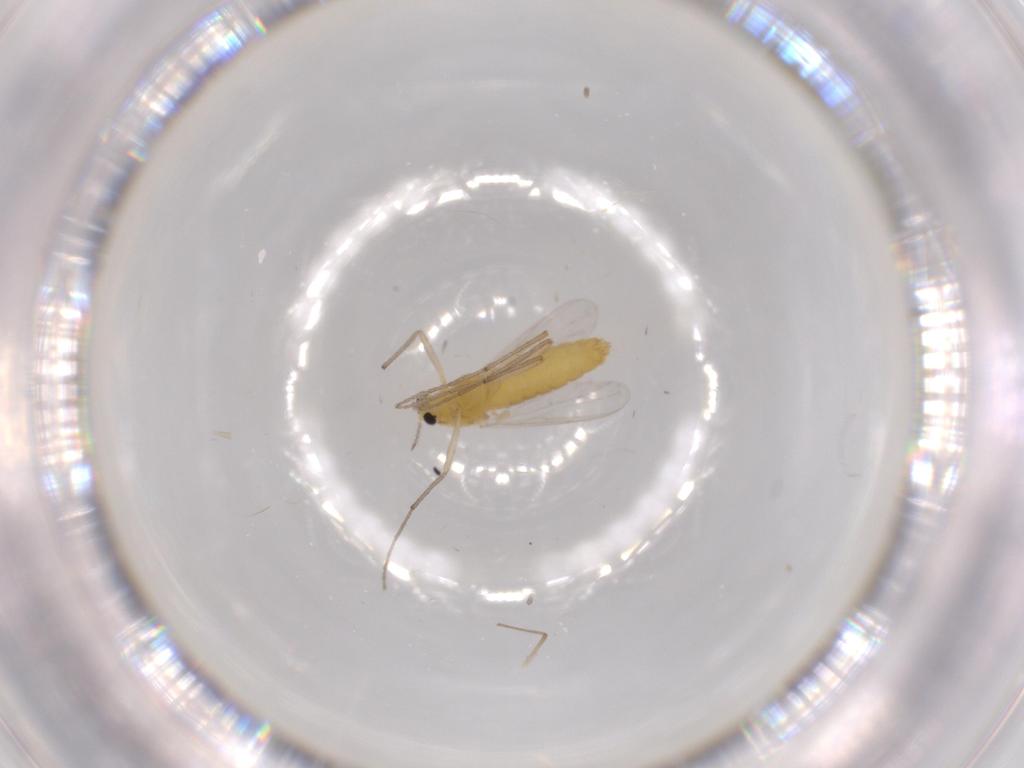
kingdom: Animalia
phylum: Arthropoda
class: Insecta
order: Diptera
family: Chironomidae
